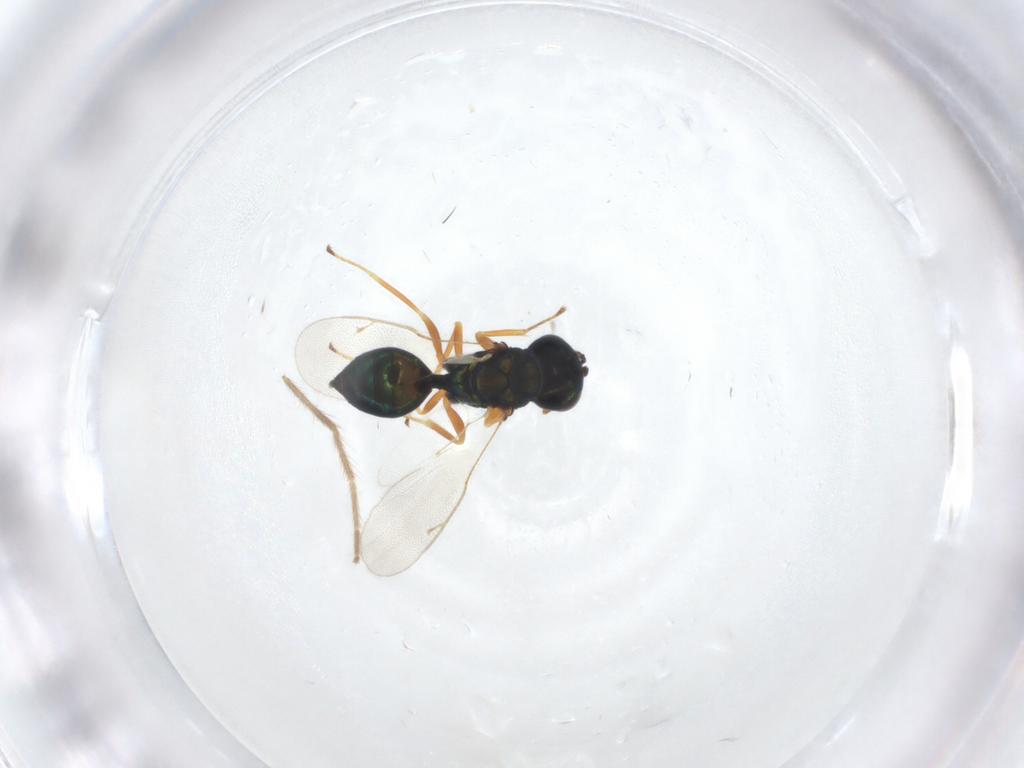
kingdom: Animalia
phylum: Arthropoda
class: Insecta
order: Hymenoptera
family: Pteromalidae
